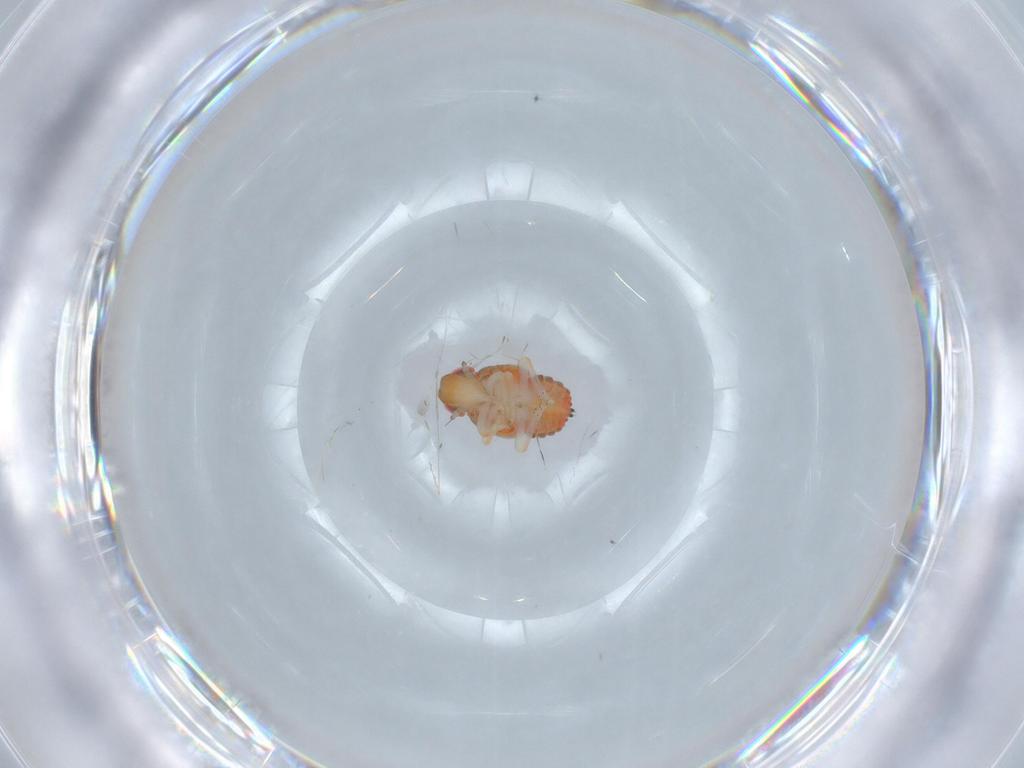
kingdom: Animalia
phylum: Arthropoda
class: Insecta
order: Hemiptera
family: Issidae
